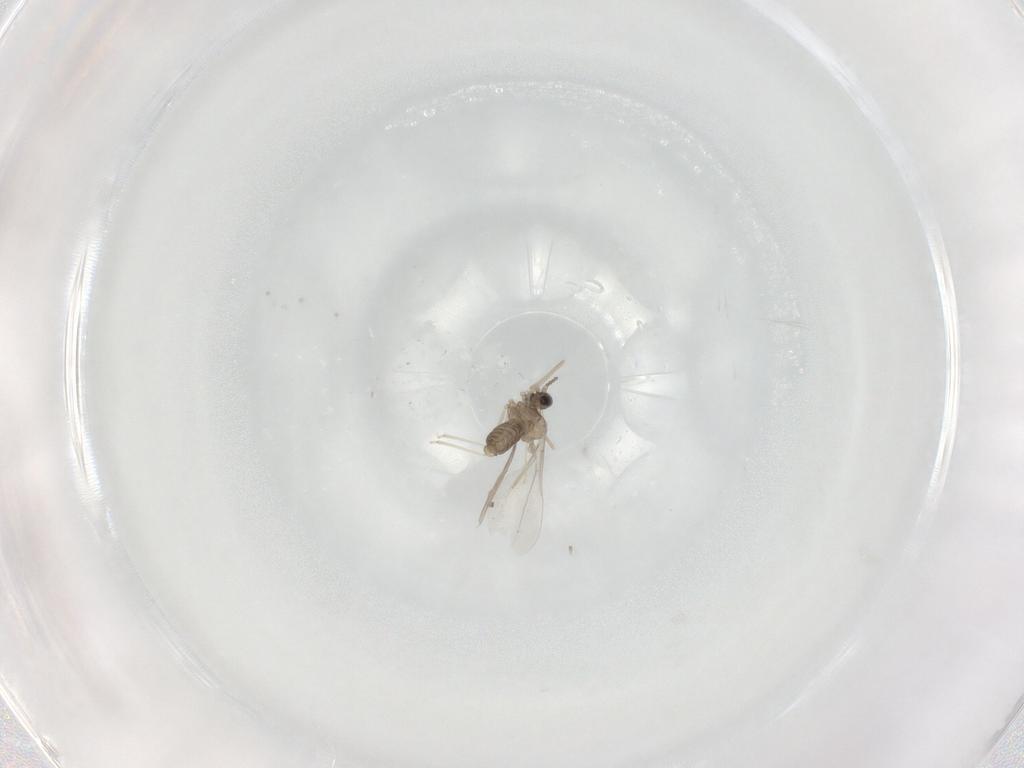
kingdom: Animalia
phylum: Arthropoda
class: Insecta
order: Diptera
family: Cecidomyiidae
